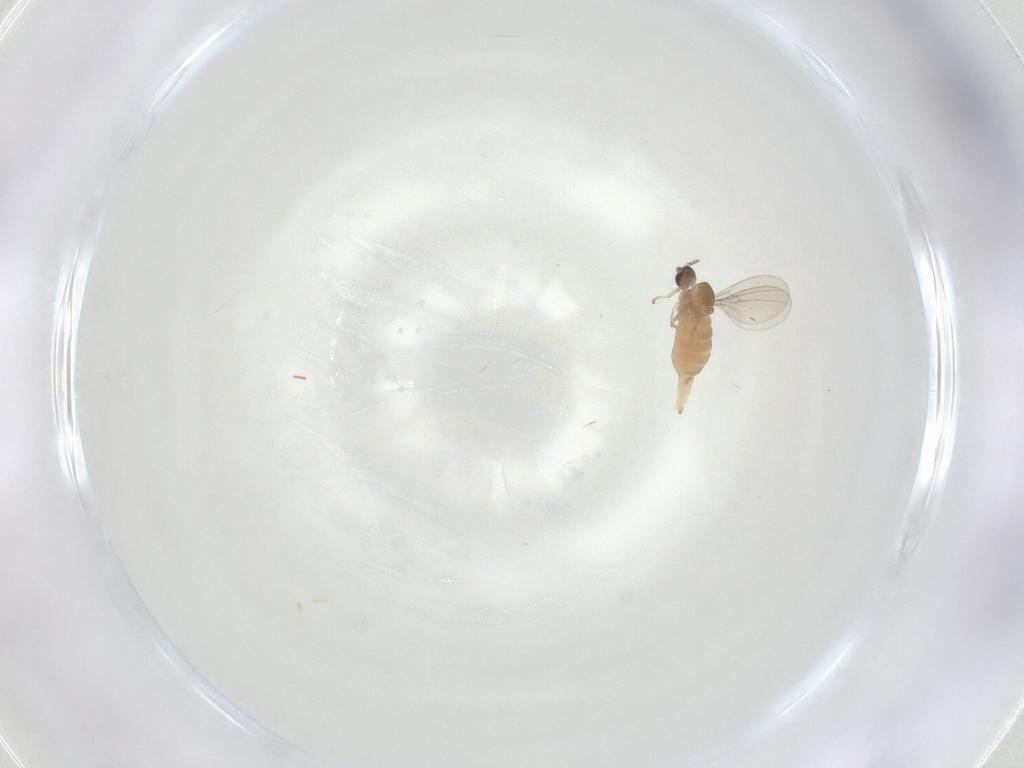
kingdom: Animalia
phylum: Arthropoda
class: Insecta
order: Diptera
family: Cecidomyiidae
